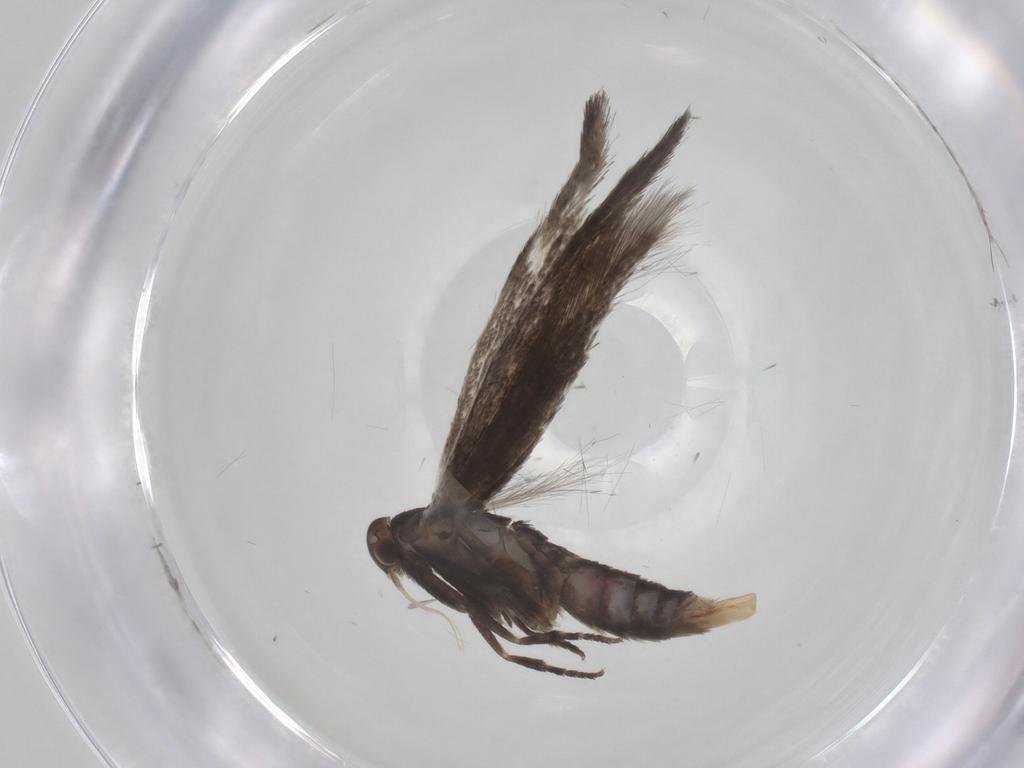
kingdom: Animalia
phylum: Arthropoda
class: Insecta
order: Lepidoptera
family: Elachistidae
